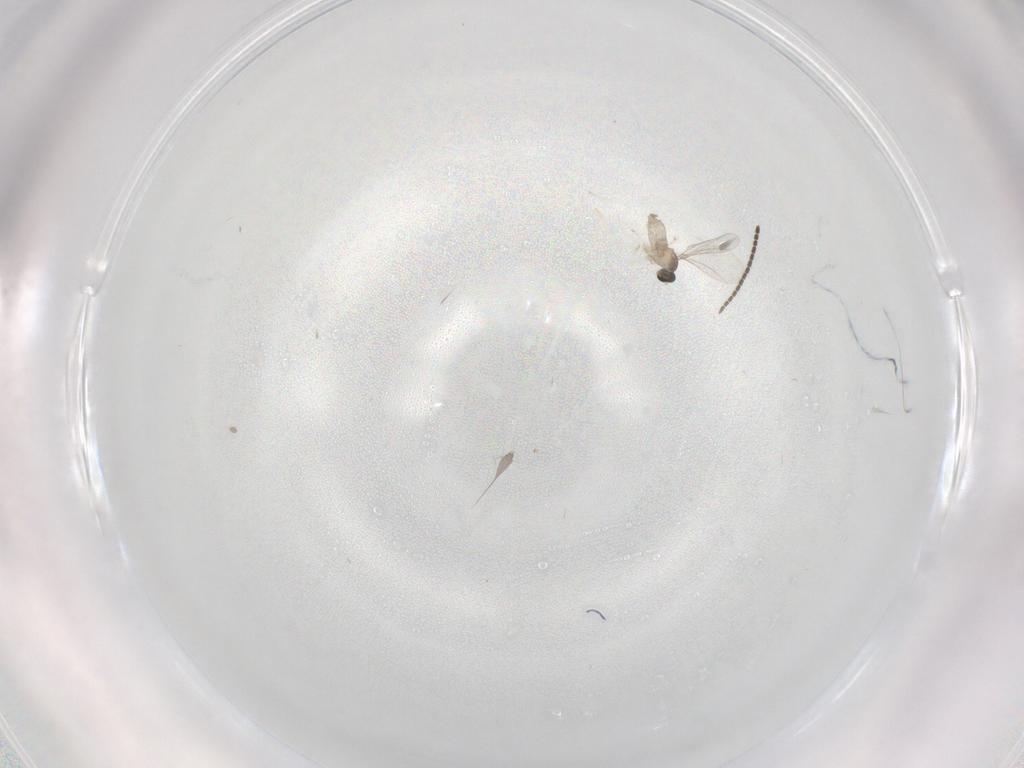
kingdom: Animalia
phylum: Arthropoda
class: Insecta
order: Diptera
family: Cecidomyiidae
